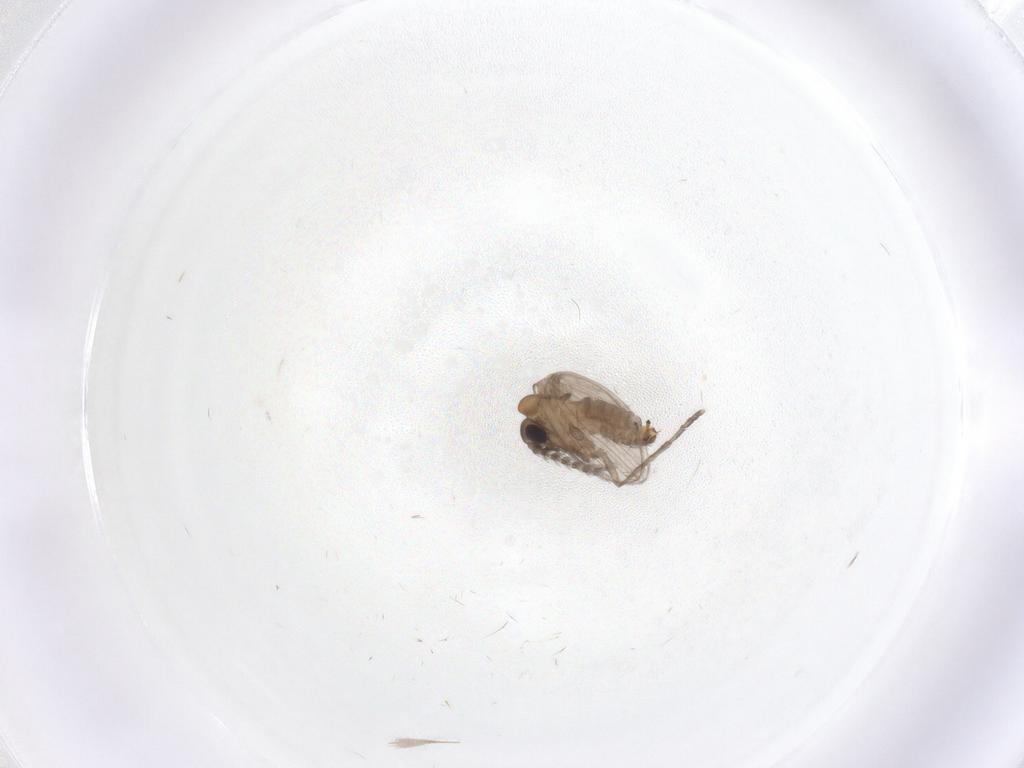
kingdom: Animalia
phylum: Arthropoda
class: Insecta
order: Diptera
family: Psychodidae
